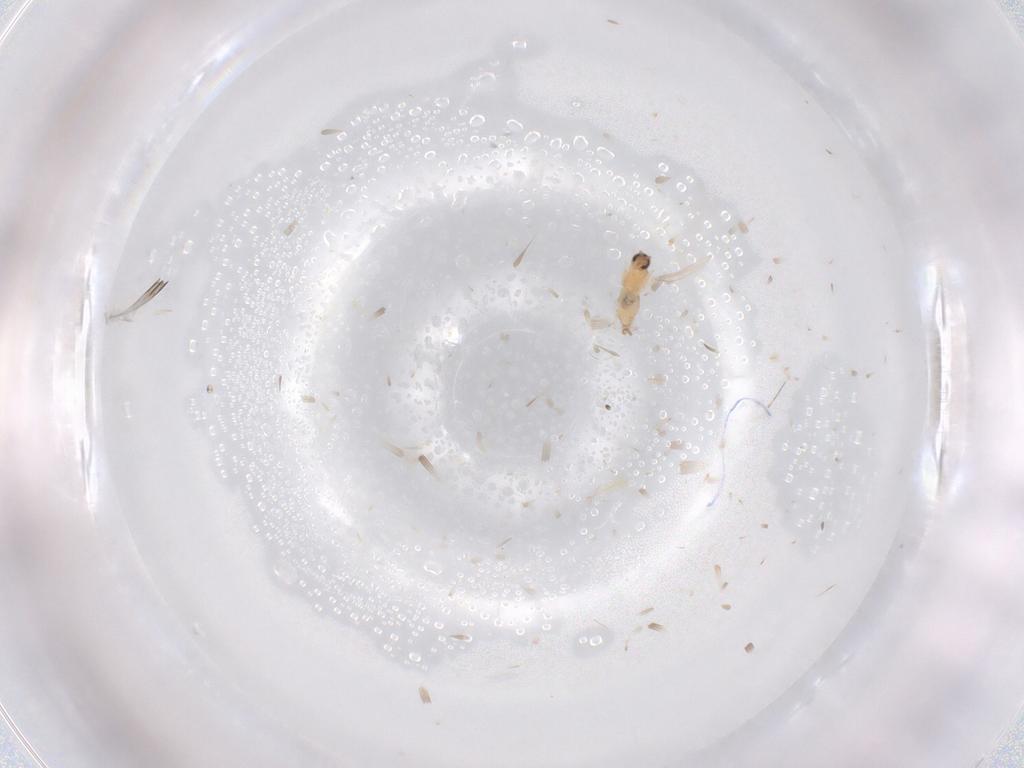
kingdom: Animalia
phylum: Arthropoda
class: Insecta
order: Diptera
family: Cecidomyiidae
